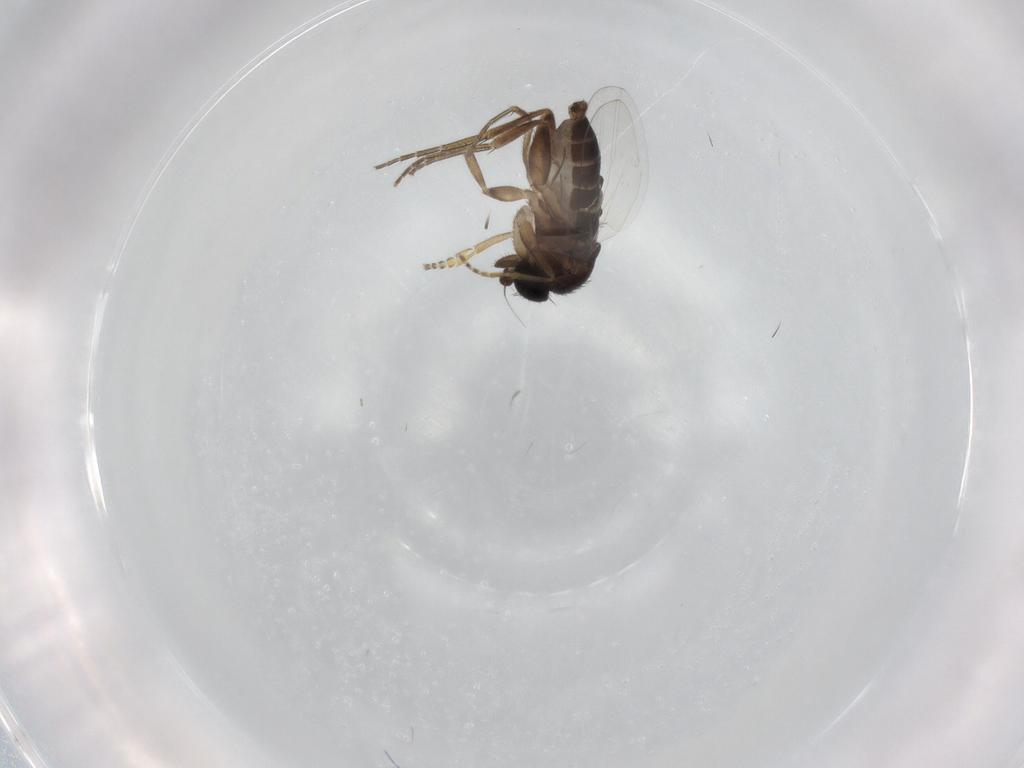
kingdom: Animalia
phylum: Arthropoda
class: Insecta
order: Diptera
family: Phoridae
